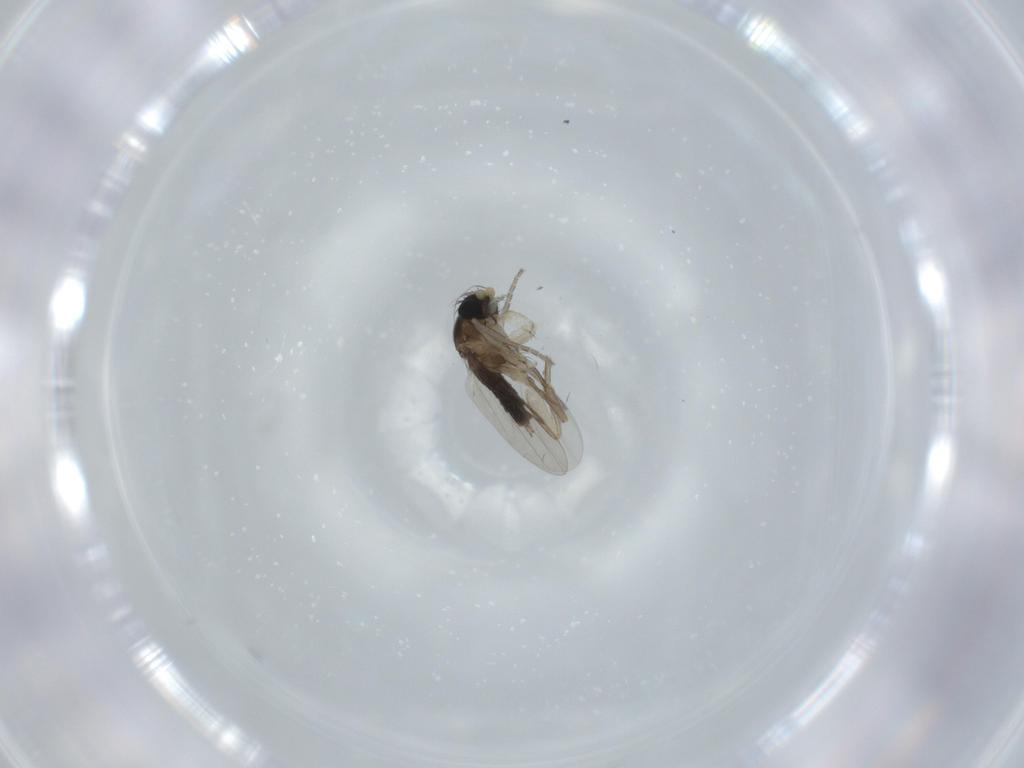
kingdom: Animalia
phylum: Arthropoda
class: Insecta
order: Diptera
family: Phoridae
